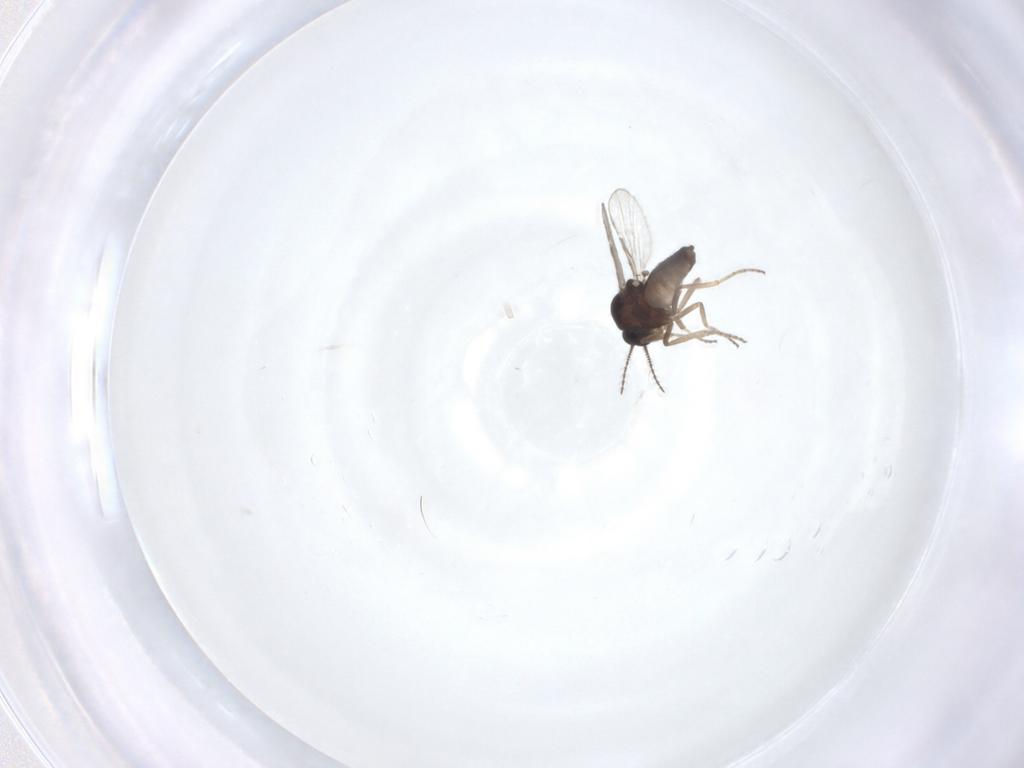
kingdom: Animalia
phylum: Arthropoda
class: Insecta
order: Diptera
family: Ceratopogonidae
